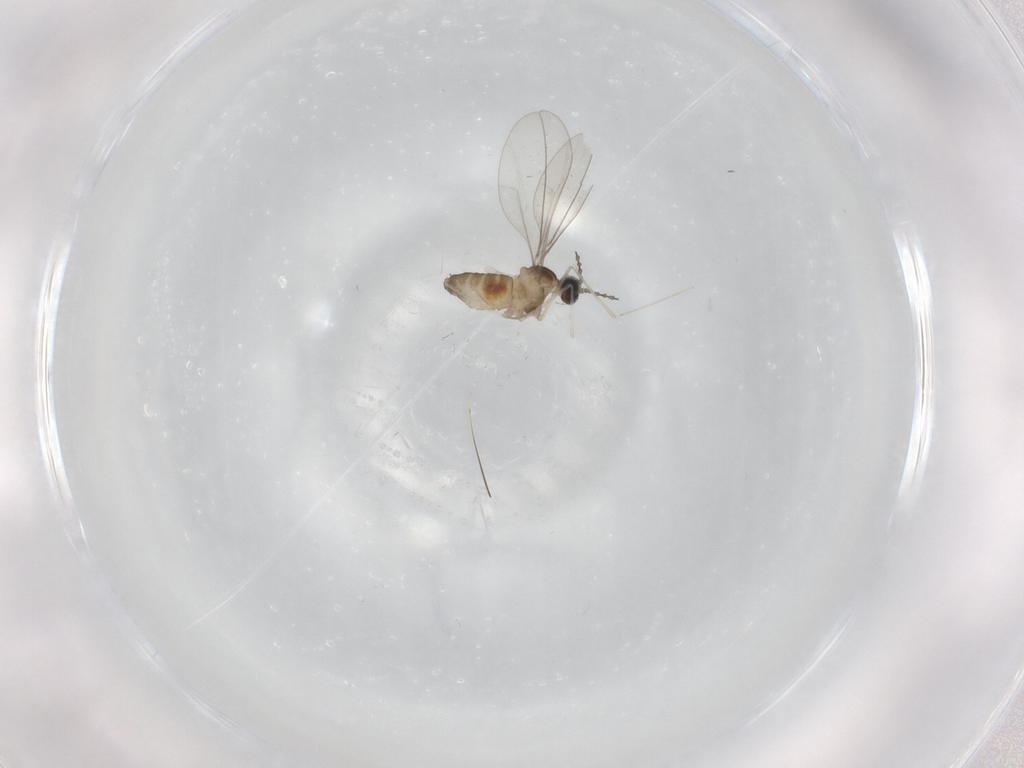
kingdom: Animalia
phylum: Arthropoda
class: Insecta
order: Diptera
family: Cecidomyiidae
